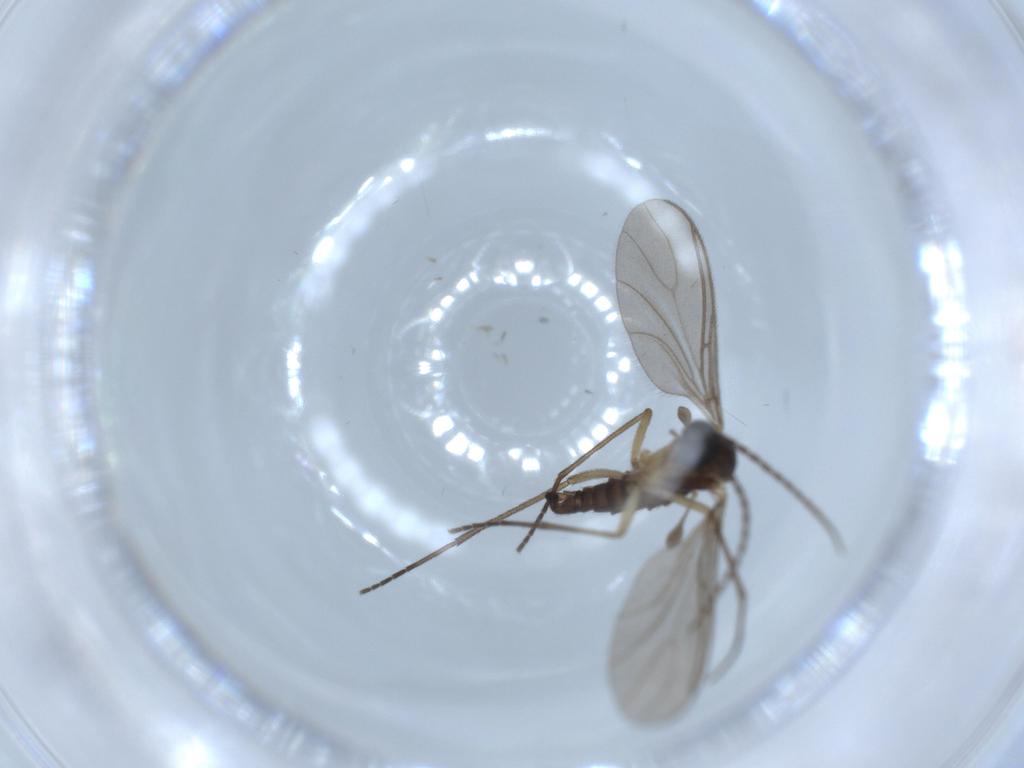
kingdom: Animalia
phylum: Arthropoda
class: Insecta
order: Diptera
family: Sciaridae
